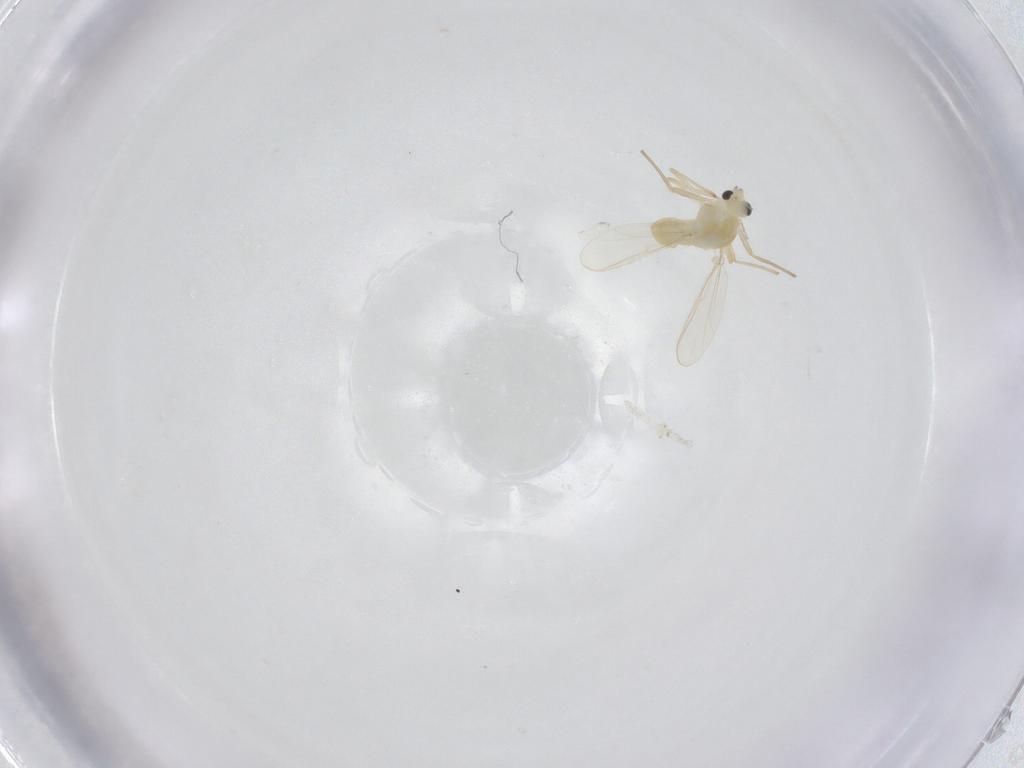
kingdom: Animalia
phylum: Arthropoda
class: Insecta
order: Diptera
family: Chironomidae
